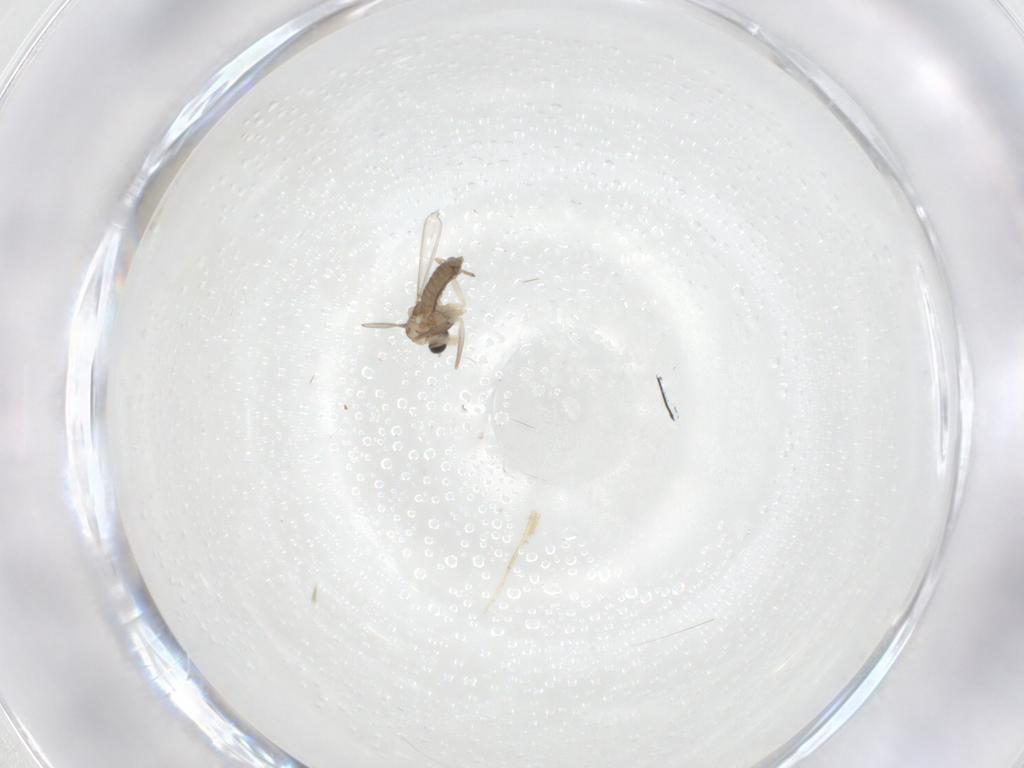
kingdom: Animalia
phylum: Arthropoda
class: Insecta
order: Diptera
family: Chironomidae
